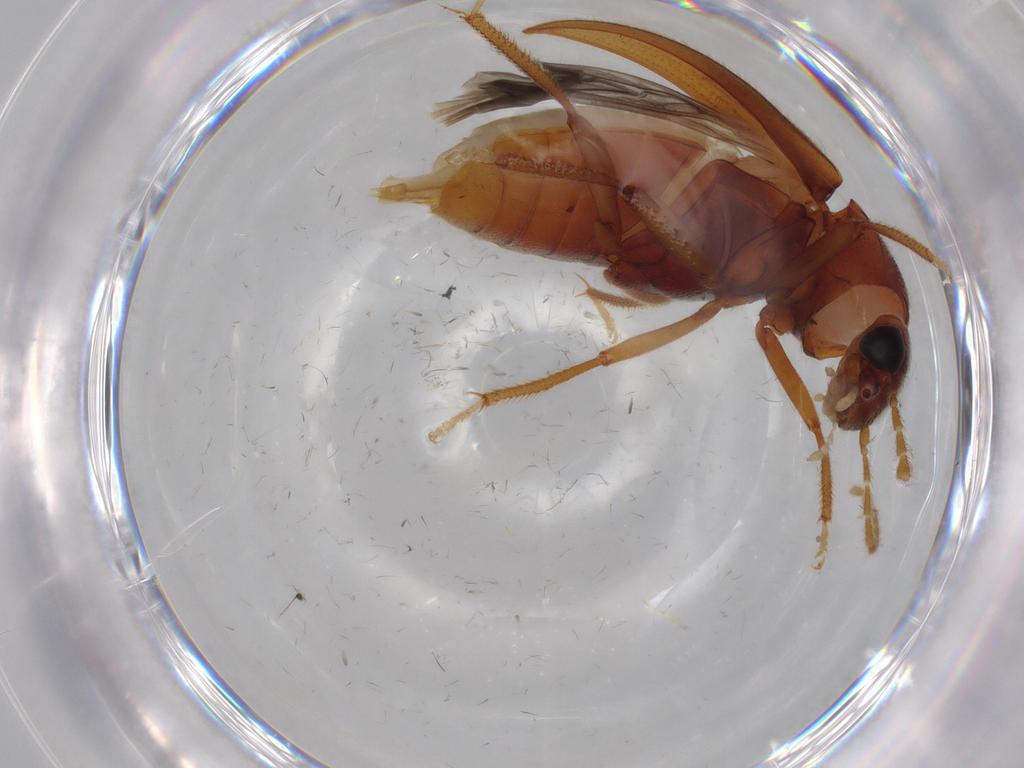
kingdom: Animalia
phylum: Arthropoda
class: Insecta
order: Coleoptera
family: Ptilodactylidae
